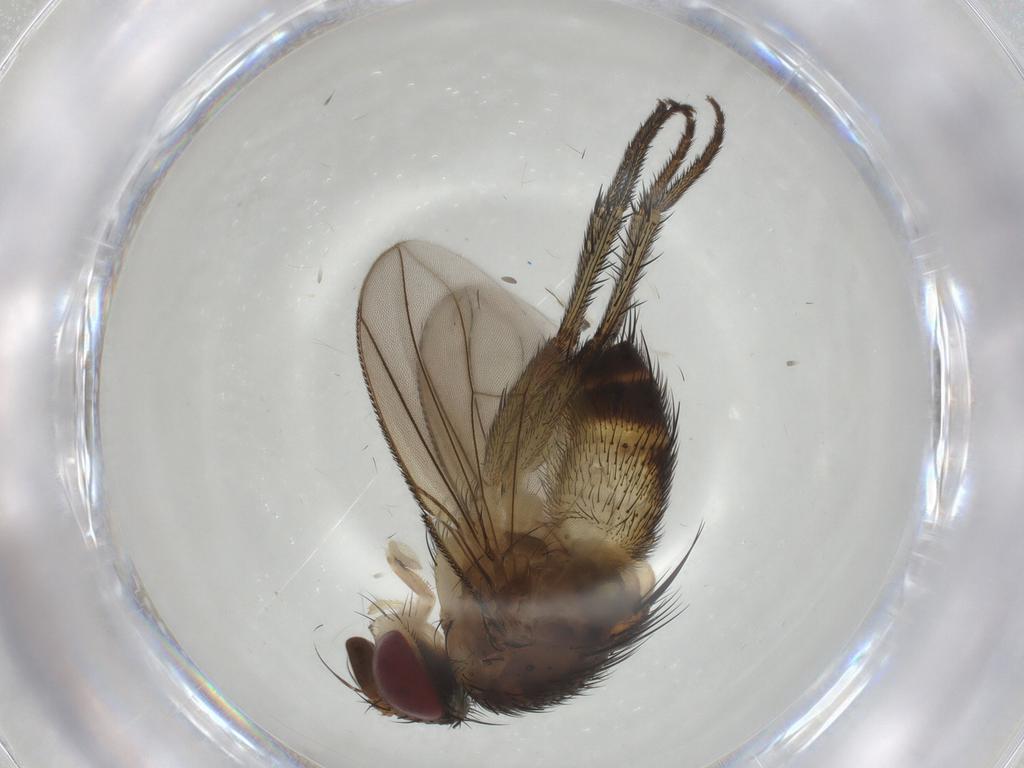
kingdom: Animalia
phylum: Arthropoda
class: Insecta
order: Diptera
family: Tachinidae
